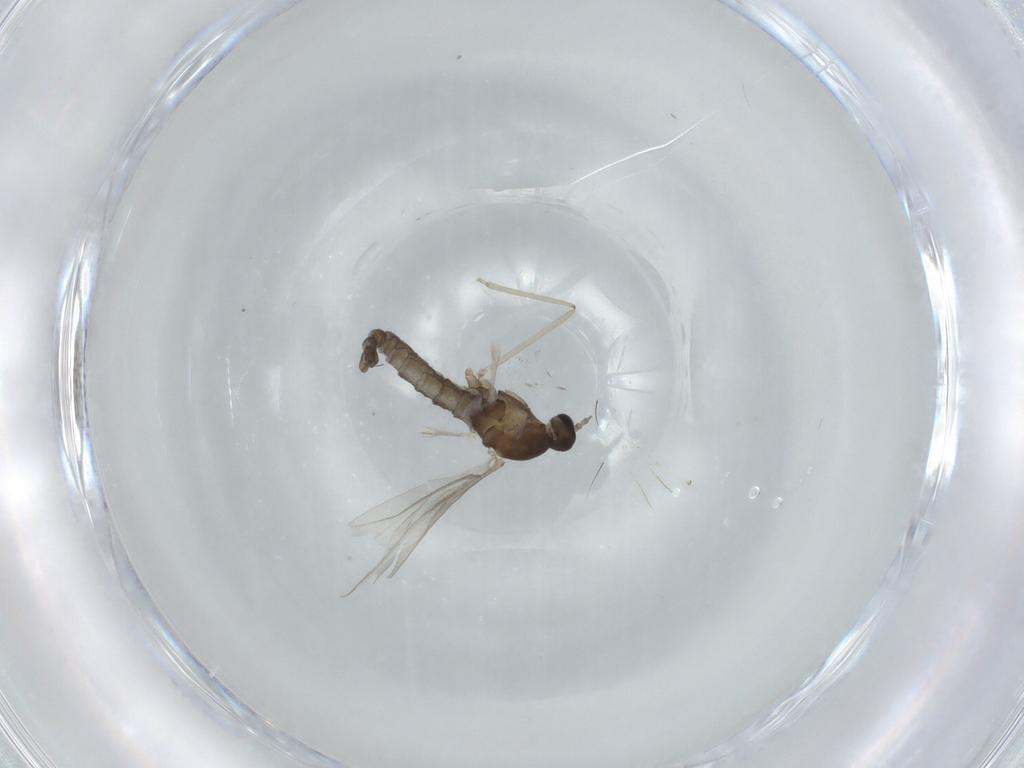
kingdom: Animalia
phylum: Arthropoda
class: Insecta
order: Diptera
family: Cecidomyiidae
